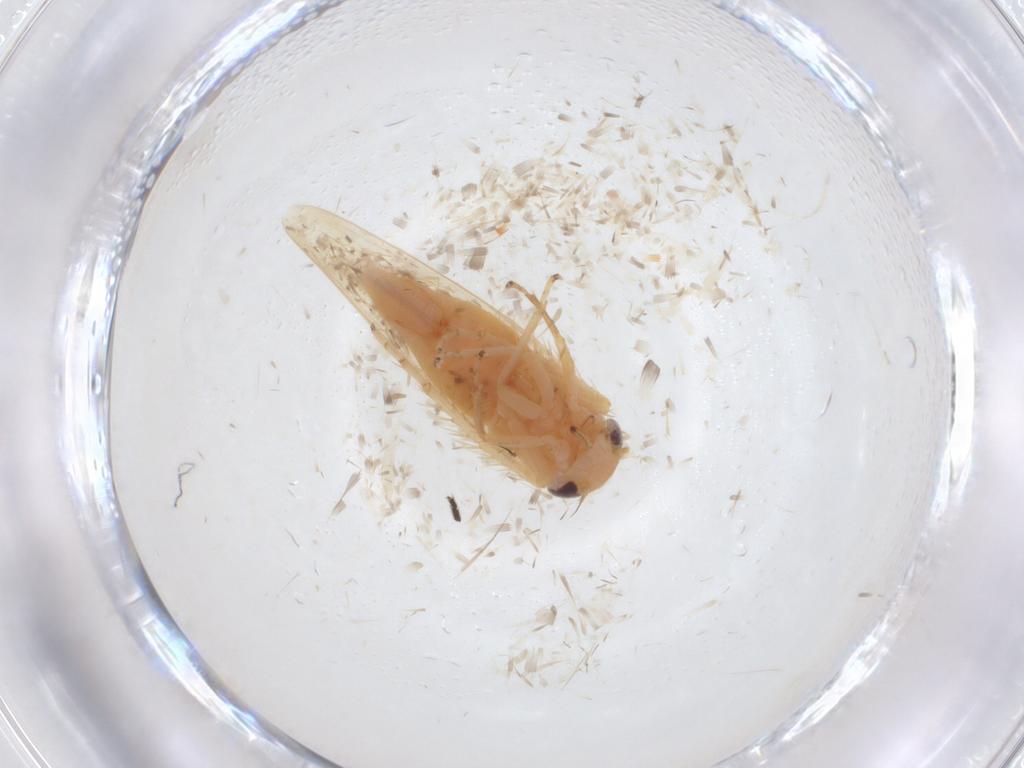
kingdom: Animalia
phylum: Arthropoda
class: Insecta
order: Hemiptera
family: Cicadellidae
